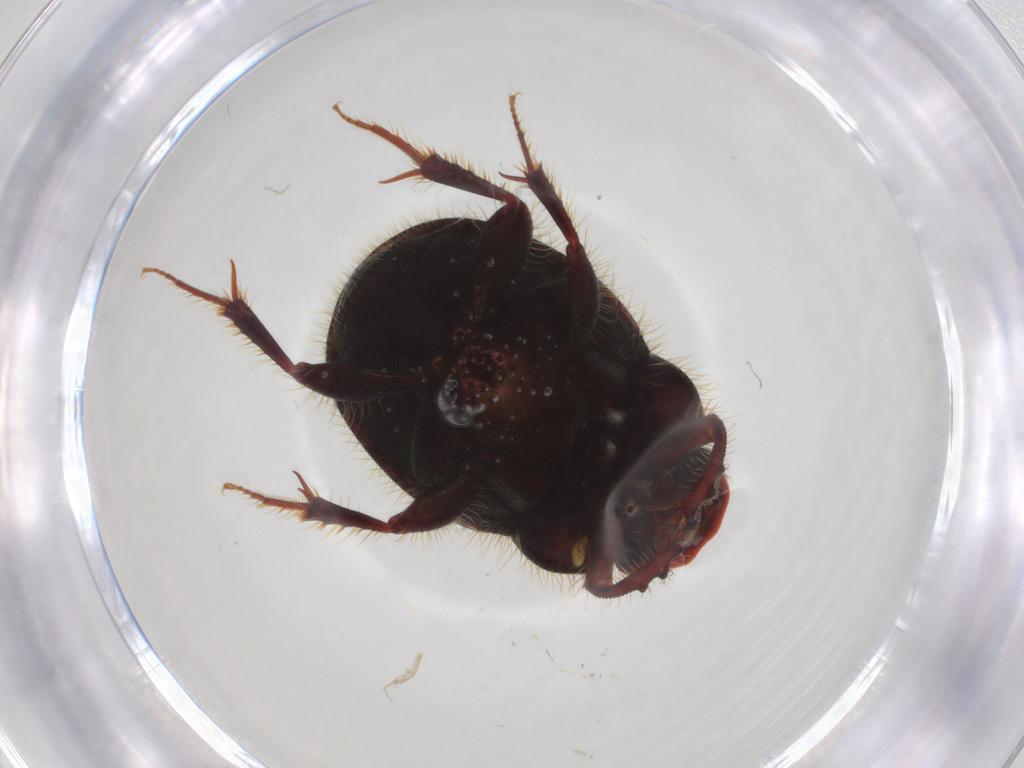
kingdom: Animalia
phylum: Arthropoda
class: Insecta
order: Coleoptera
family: Scarabaeidae
